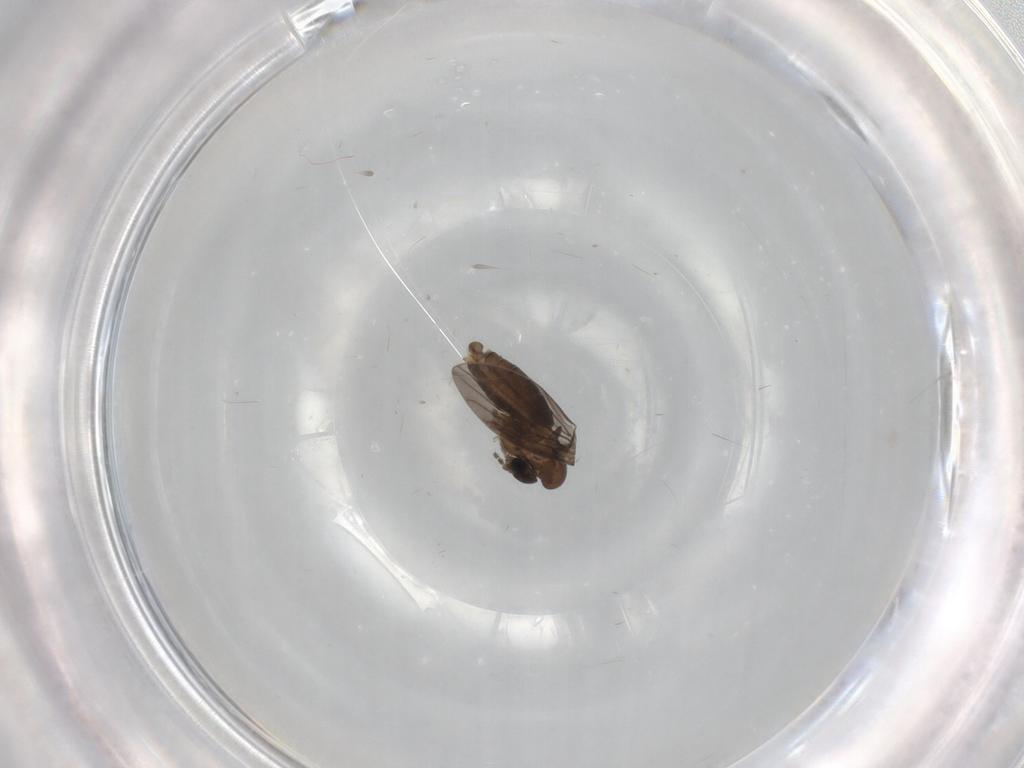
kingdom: Animalia
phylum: Arthropoda
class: Insecta
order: Diptera
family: Psychodidae
